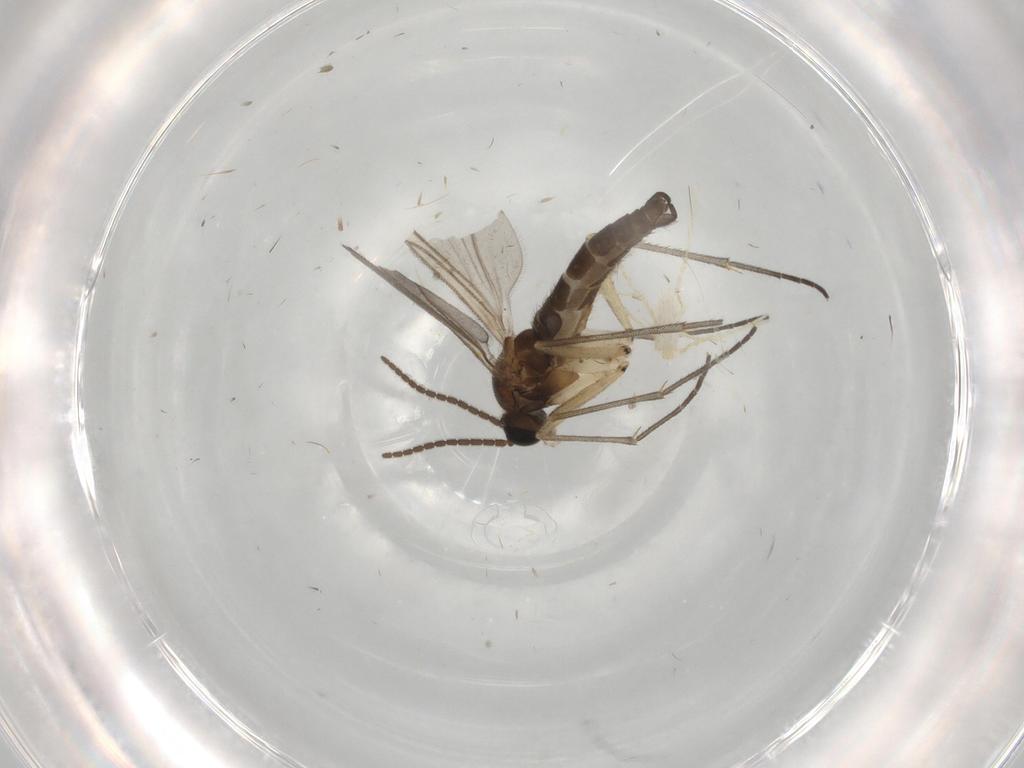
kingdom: Animalia
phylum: Arthropoda
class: Insecta
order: Diptera
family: Sciaridae
